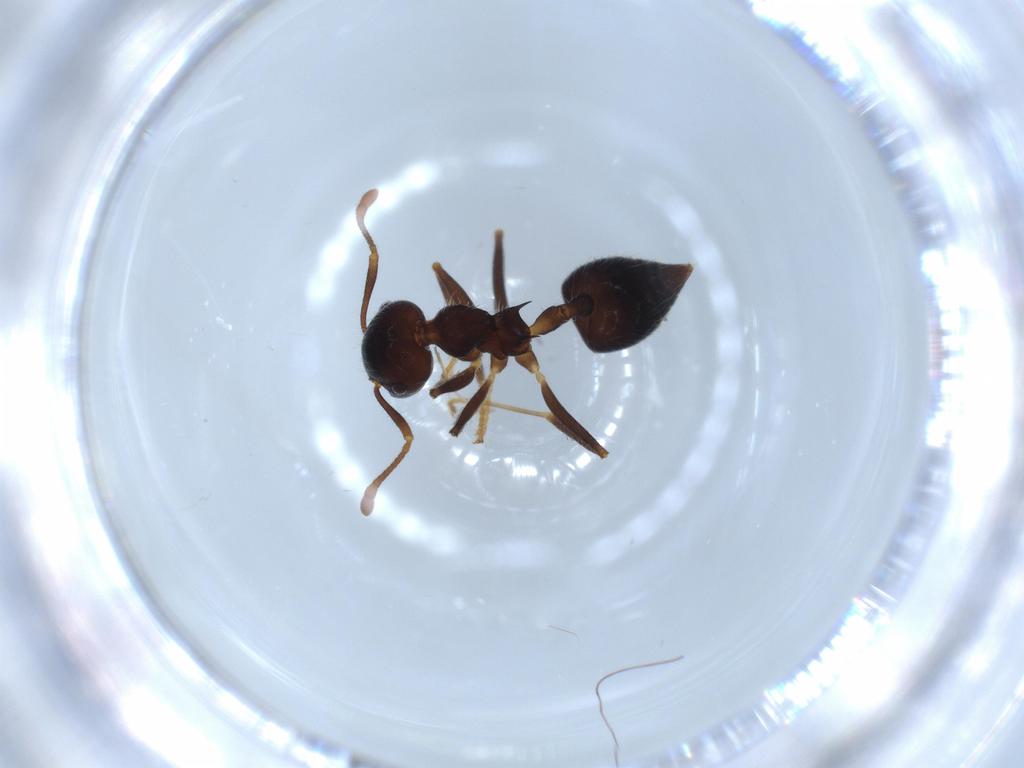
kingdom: Animalia
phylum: Arthropoda
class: Insecta
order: Hymenoptera
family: Formicidae
